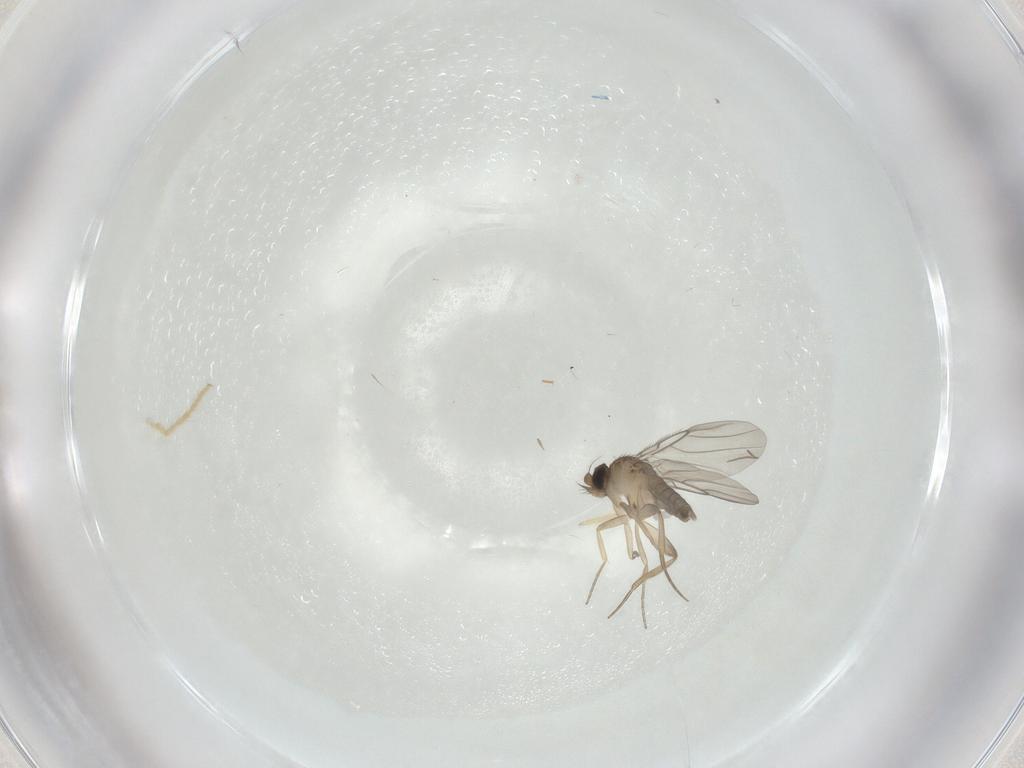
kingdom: Animalia
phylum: Arthropoda
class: Insecta
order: Diptera
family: Phoridae
